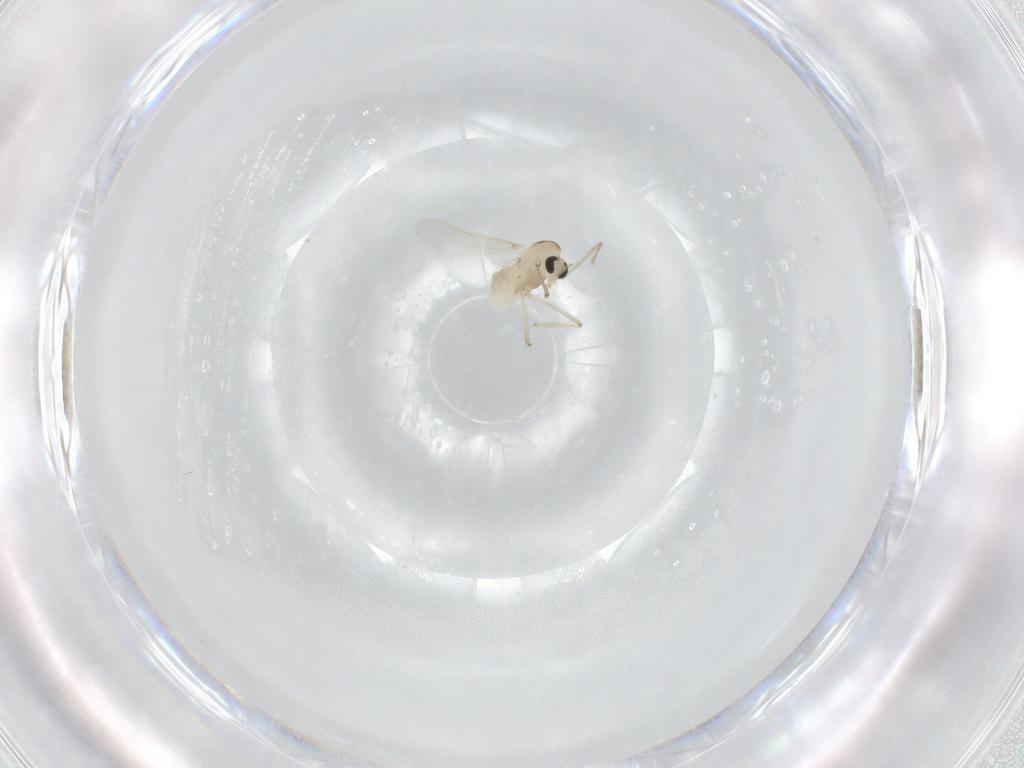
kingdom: Animalia
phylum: Arthropoda
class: Insecta
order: Diptera
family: Chironomidae
